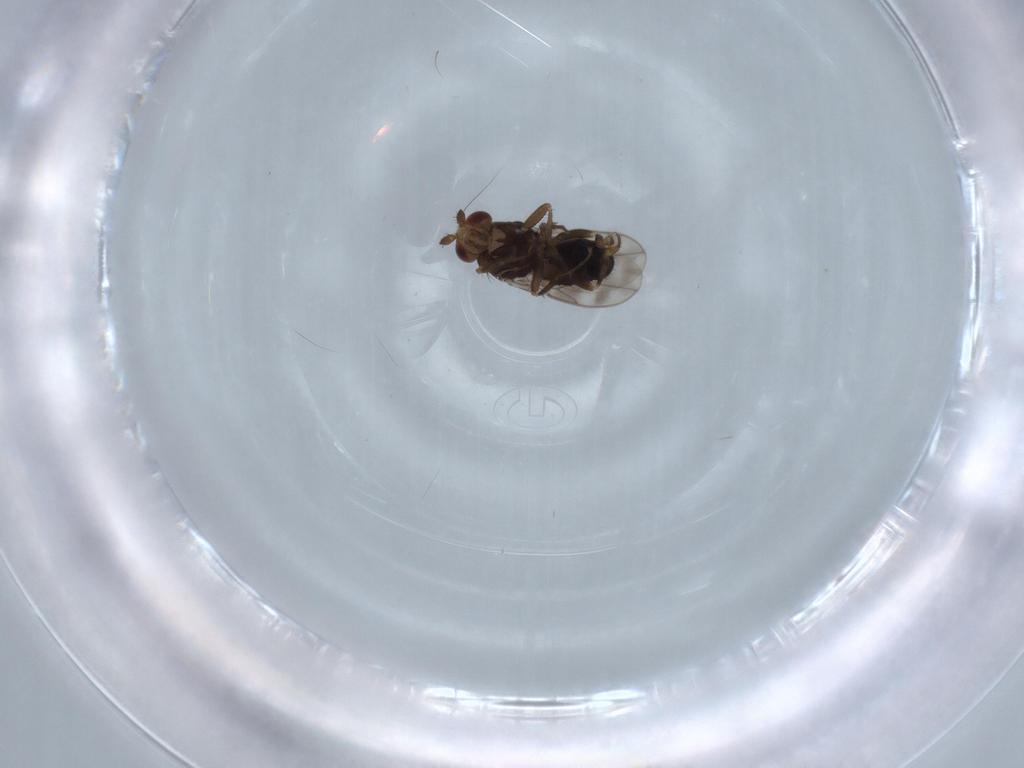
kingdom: Animalia
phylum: Arthropoda
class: Insecta
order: Diptera
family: Sphaeroceridae
